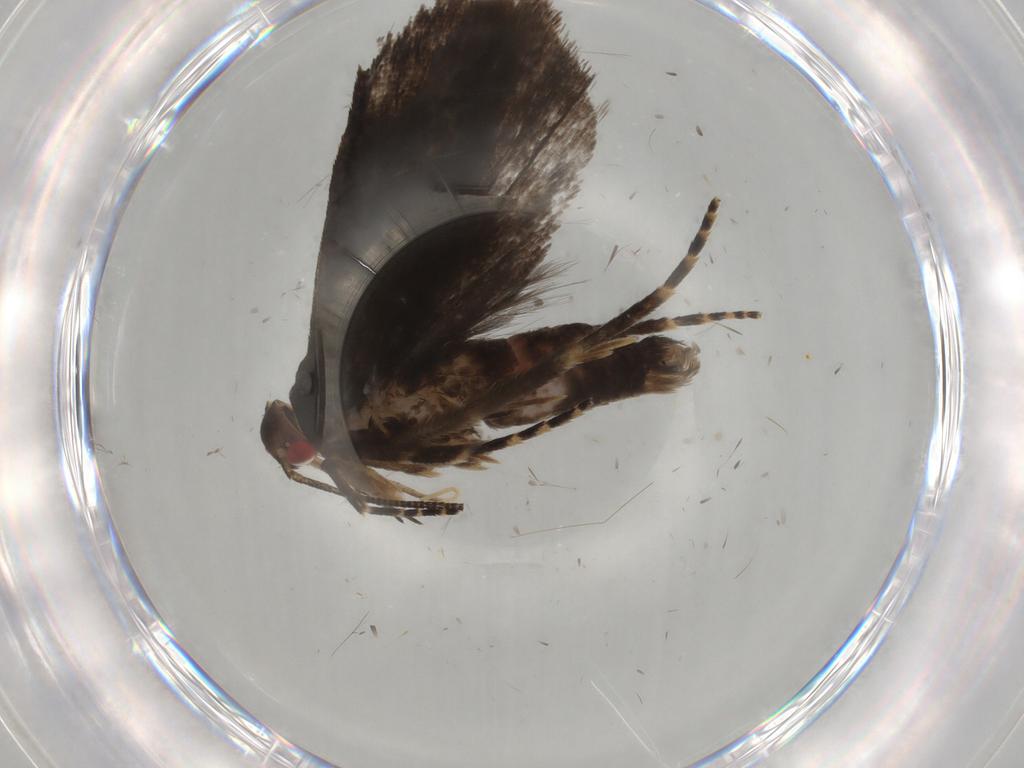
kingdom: Animalia
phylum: Arthropoda
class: Insecta
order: Lepidoptera
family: Gelechiidae
